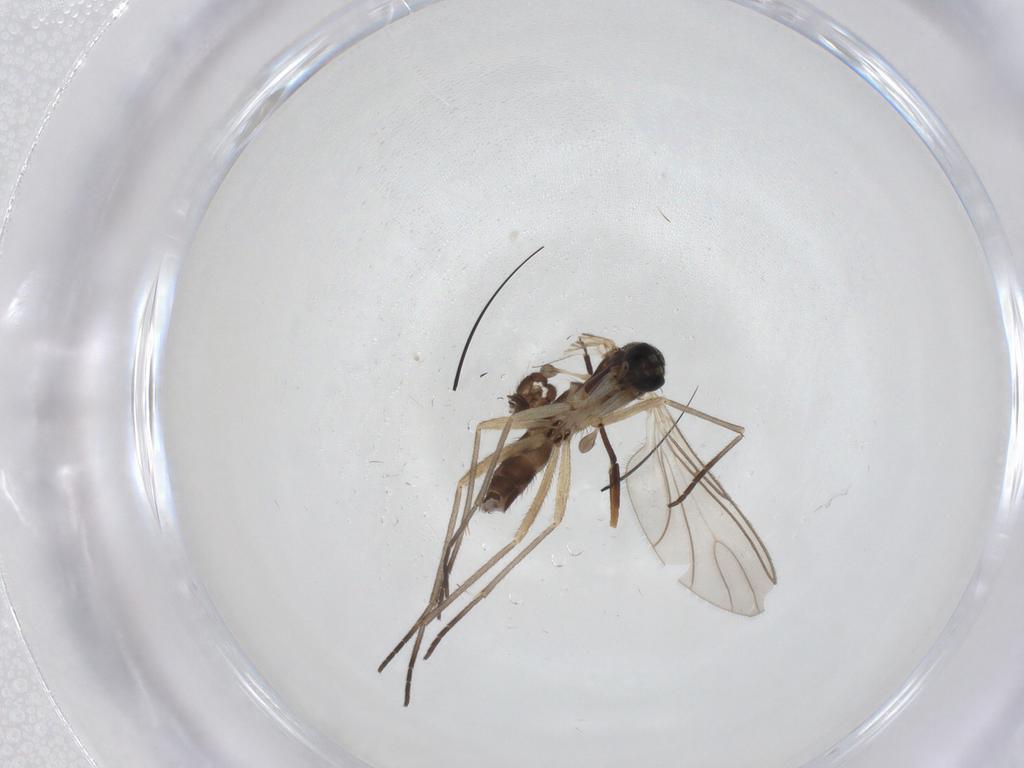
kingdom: Animalia
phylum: Arthropoda
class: Insecta
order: Diptera
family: Sciaridae
